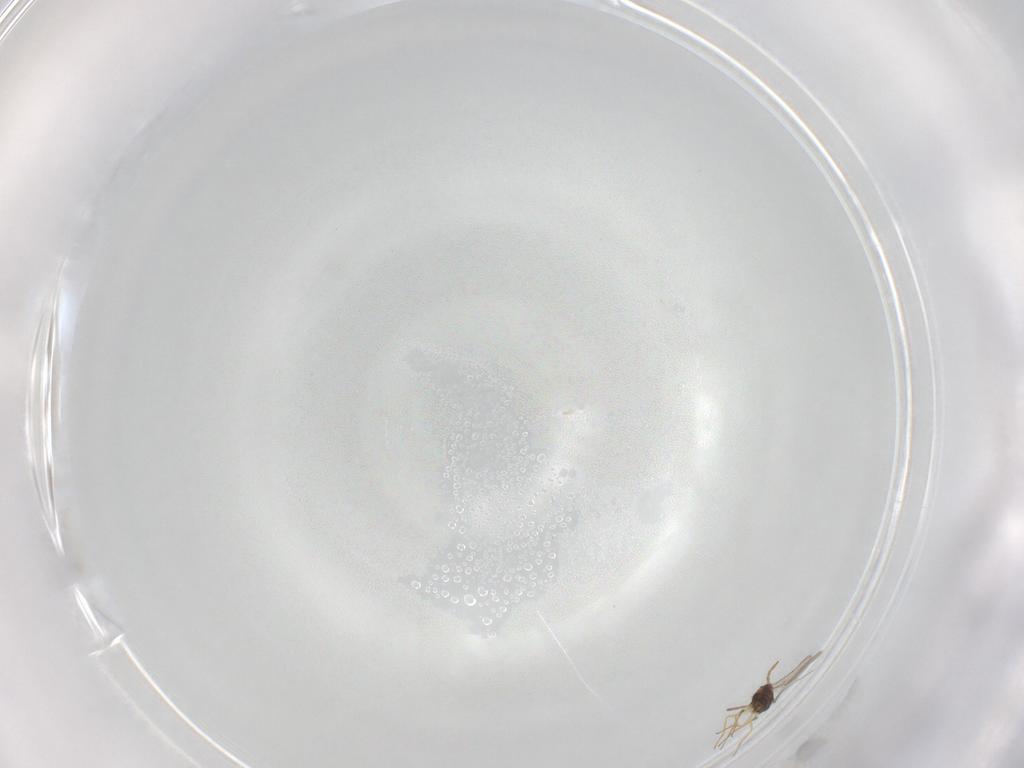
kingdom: Animalia
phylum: Arthropoda
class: Insecta
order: Hymenoptera
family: Aphelinidae
